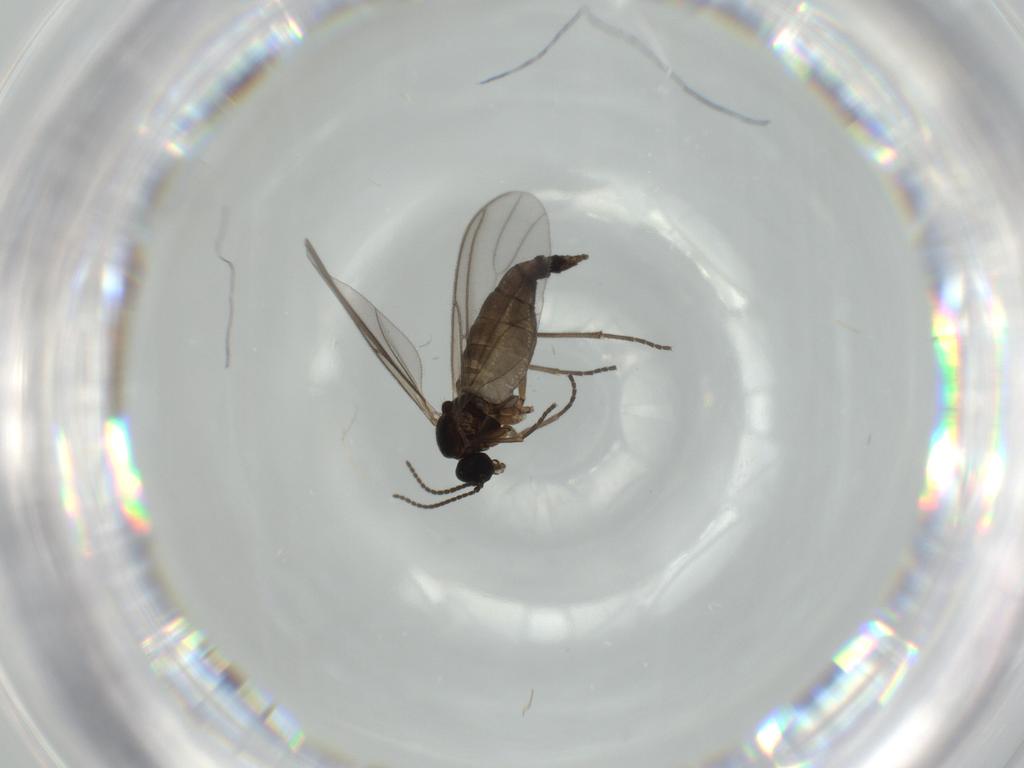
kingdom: Animalia
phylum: Arthropoda
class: Insecta
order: Diptera
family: Sciaridae
